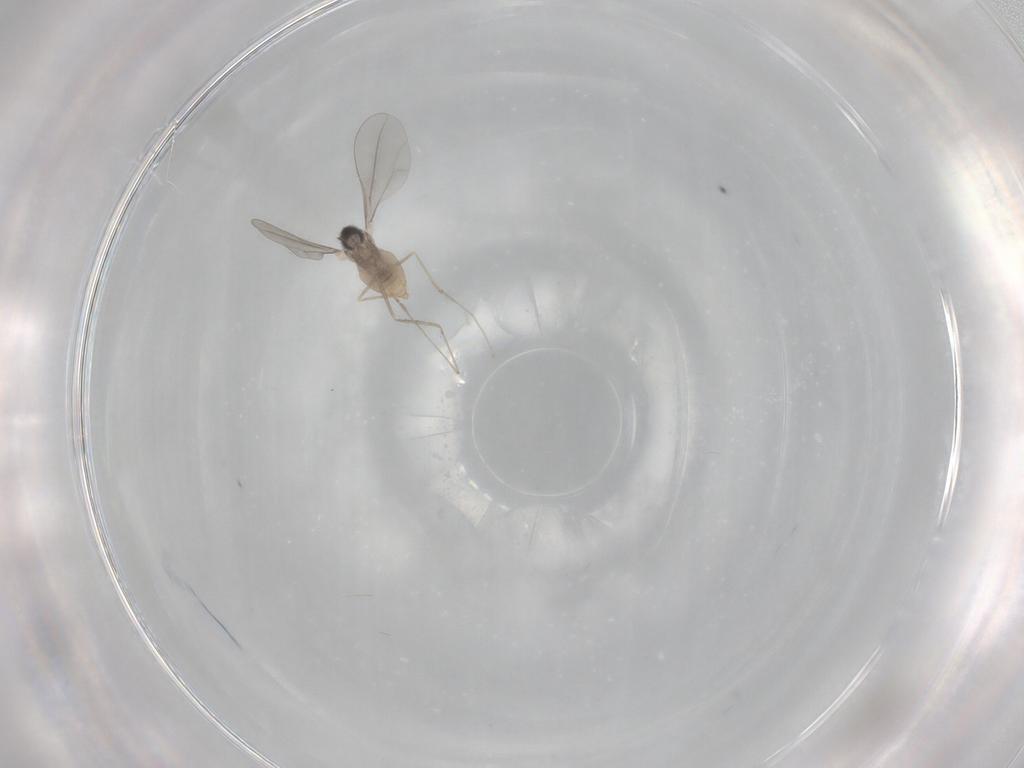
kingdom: Animalia
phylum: Arthropoda
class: Insecta
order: Diptera
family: Cecidomyiidae
